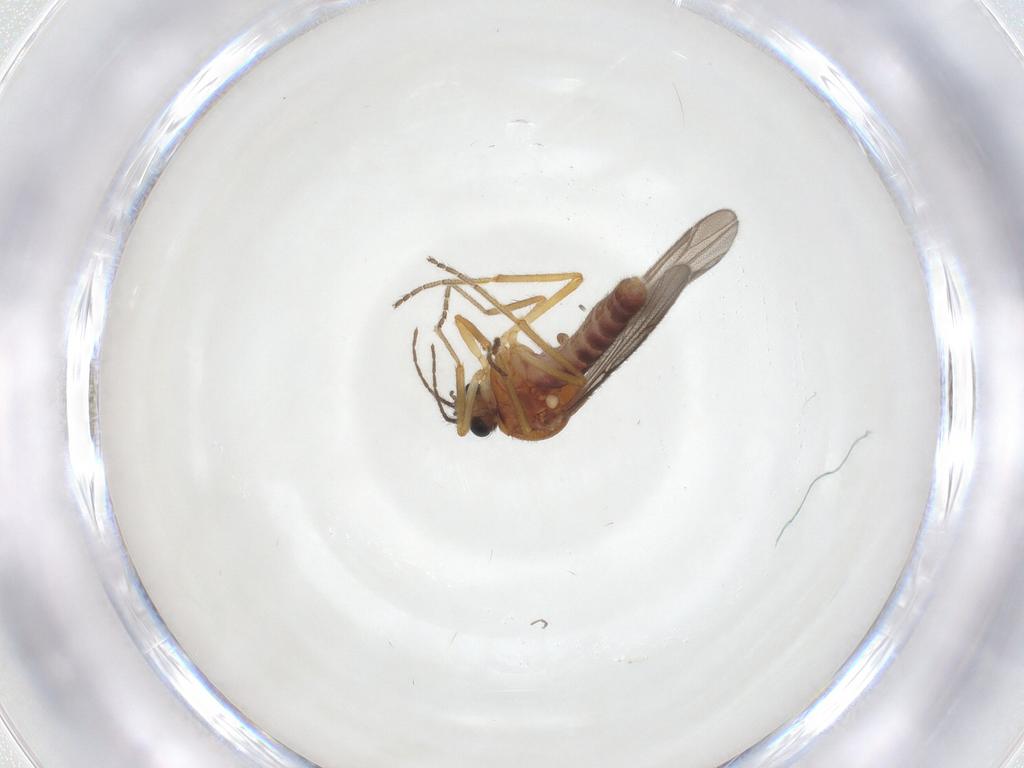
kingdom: Animalia
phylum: Arthropoda
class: Insecta
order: Diptera
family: Ceratopogonidae
